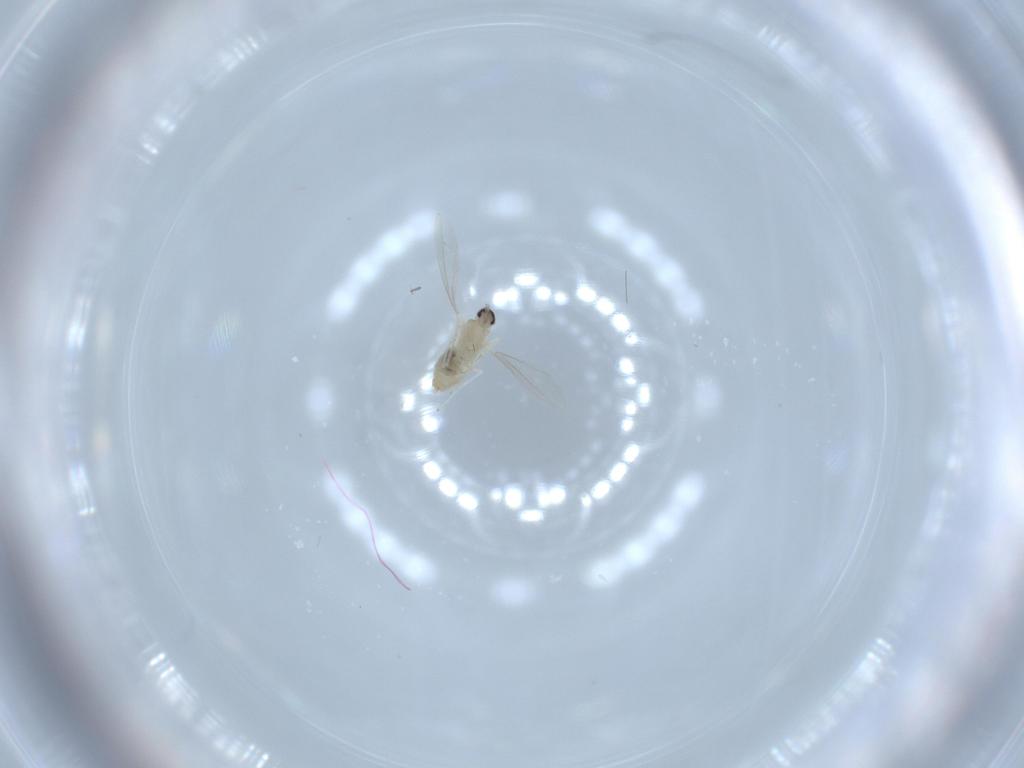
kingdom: Animalia
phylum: Arthropoda
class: Insecta
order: Diptera
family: Cecidomyiidae
